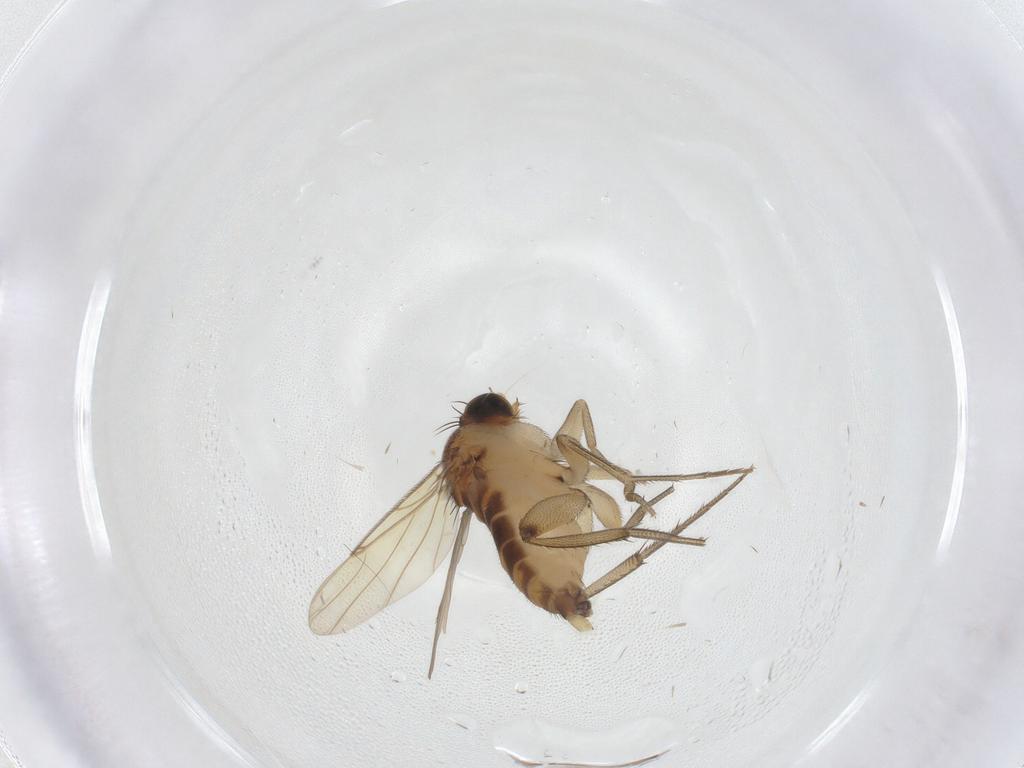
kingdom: Animalia
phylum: Arthropoda
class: Insecta
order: Diptera
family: Phoridae
